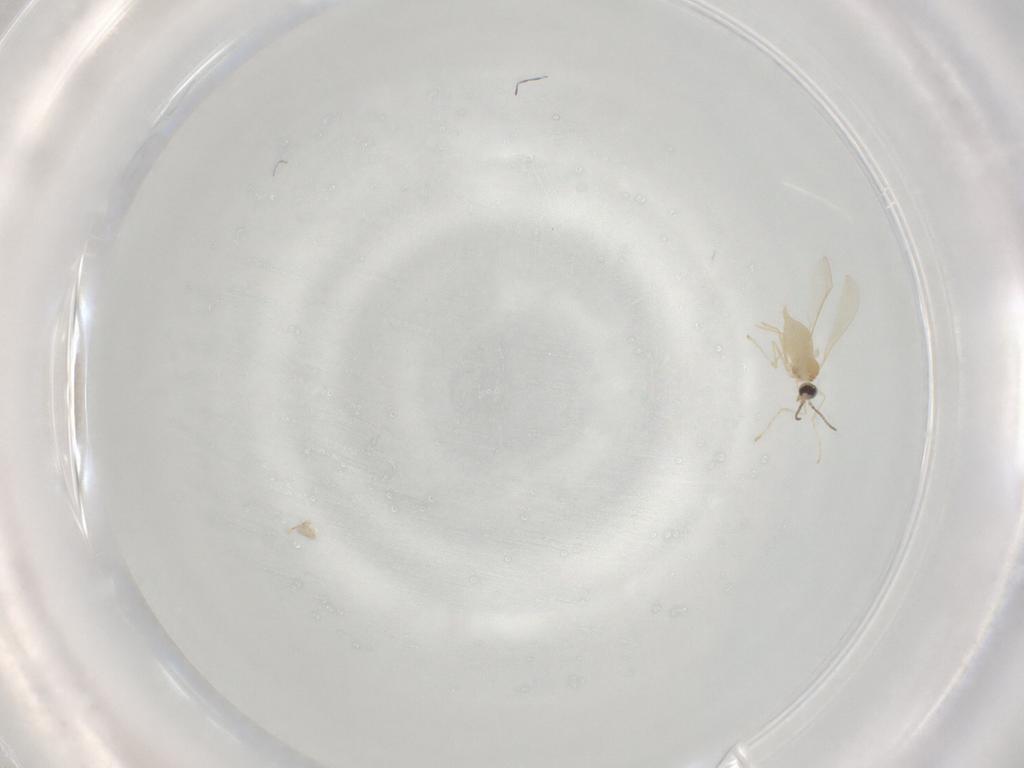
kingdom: Animalia
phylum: Arthropoda
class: Insecta
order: Diptera
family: Cecidomyiidae
